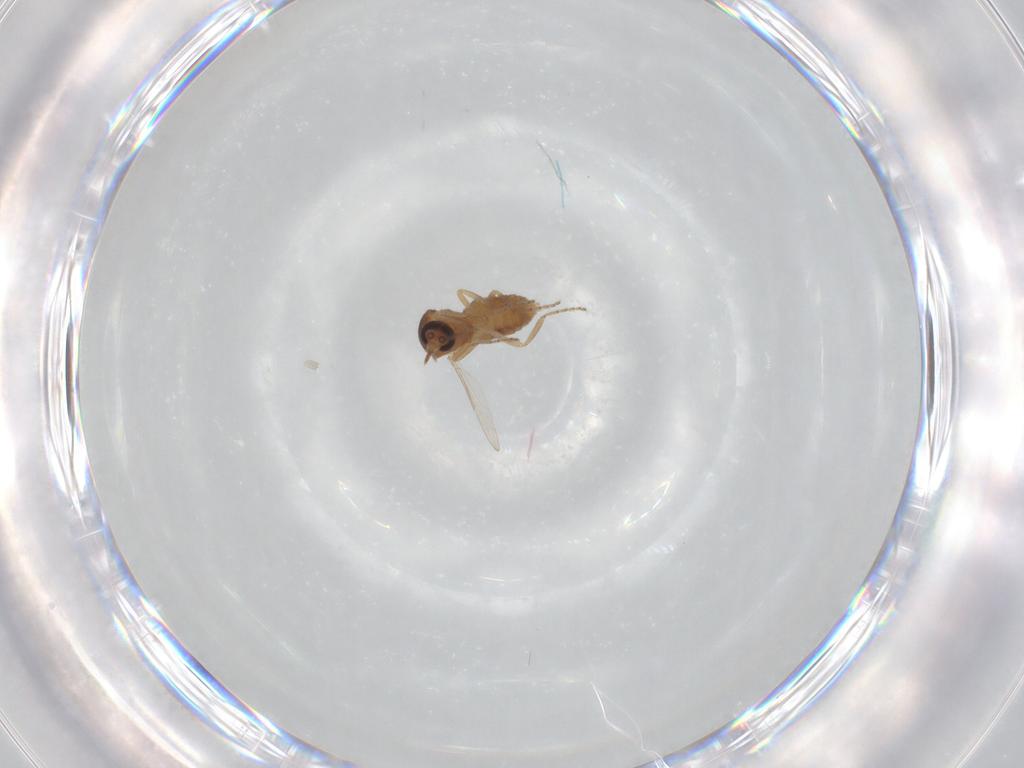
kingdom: Animalia
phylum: Arthropoda
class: Insecta
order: Diptera
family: Ceratopogonidae
